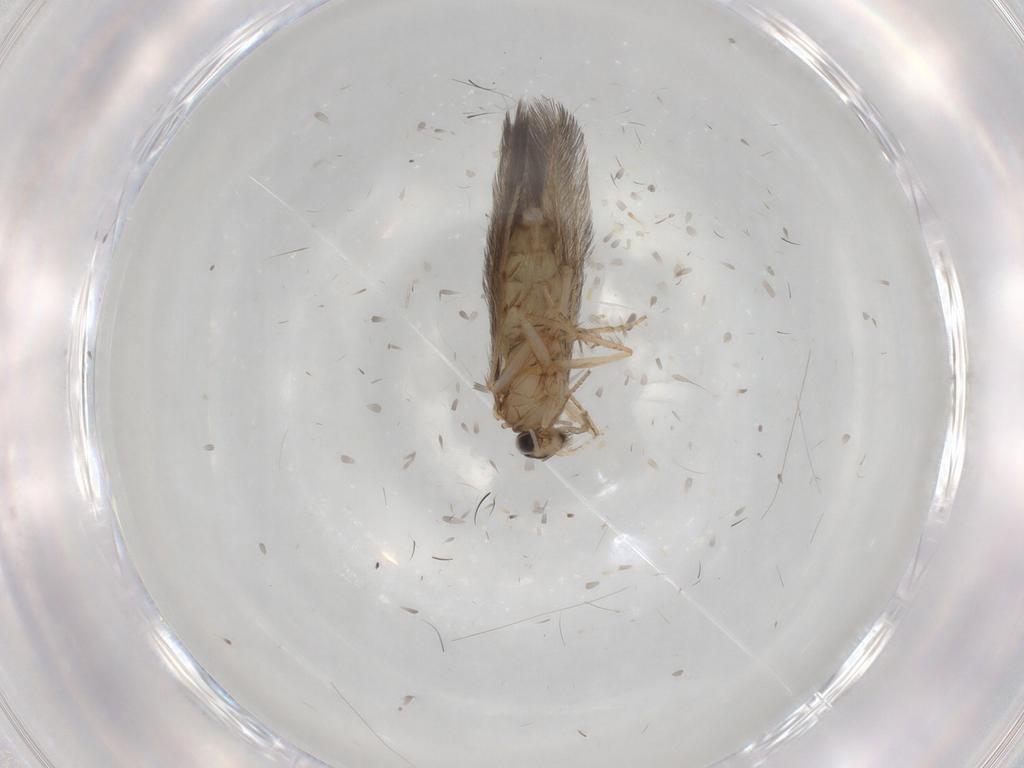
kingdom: Animalia
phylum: Arthropoda
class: Insecta
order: Trichoptera
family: Hydroptilidae
